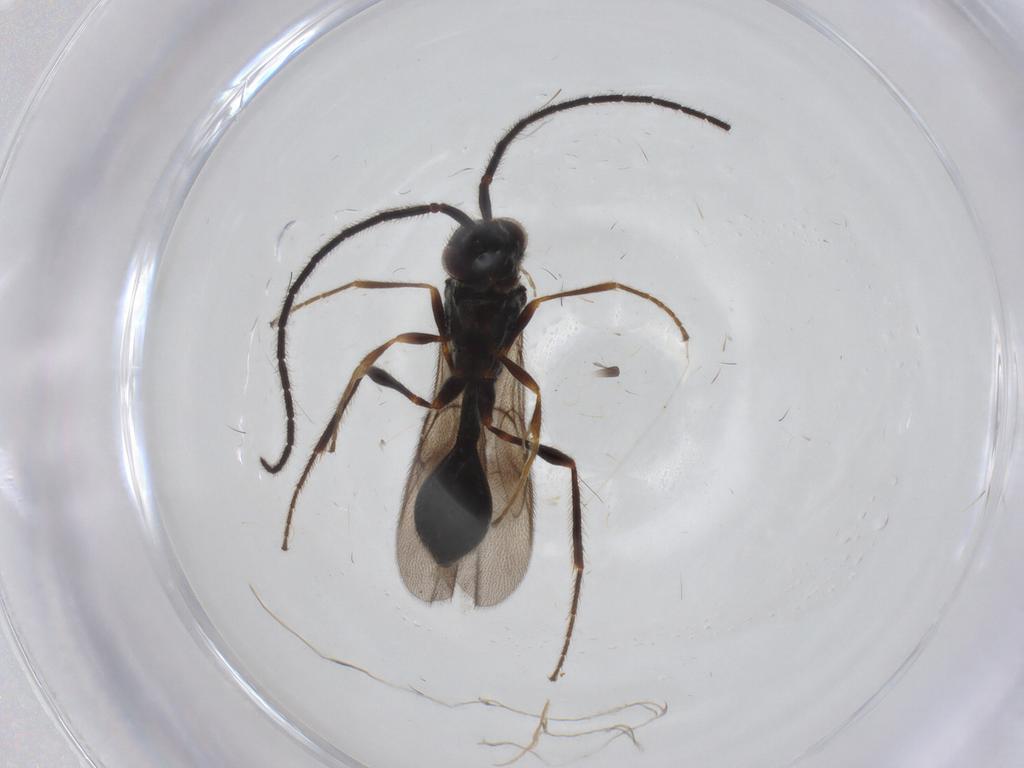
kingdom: Animalia
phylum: Arthropoda
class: Insecta
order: Hymenoptera
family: Diapriidae
